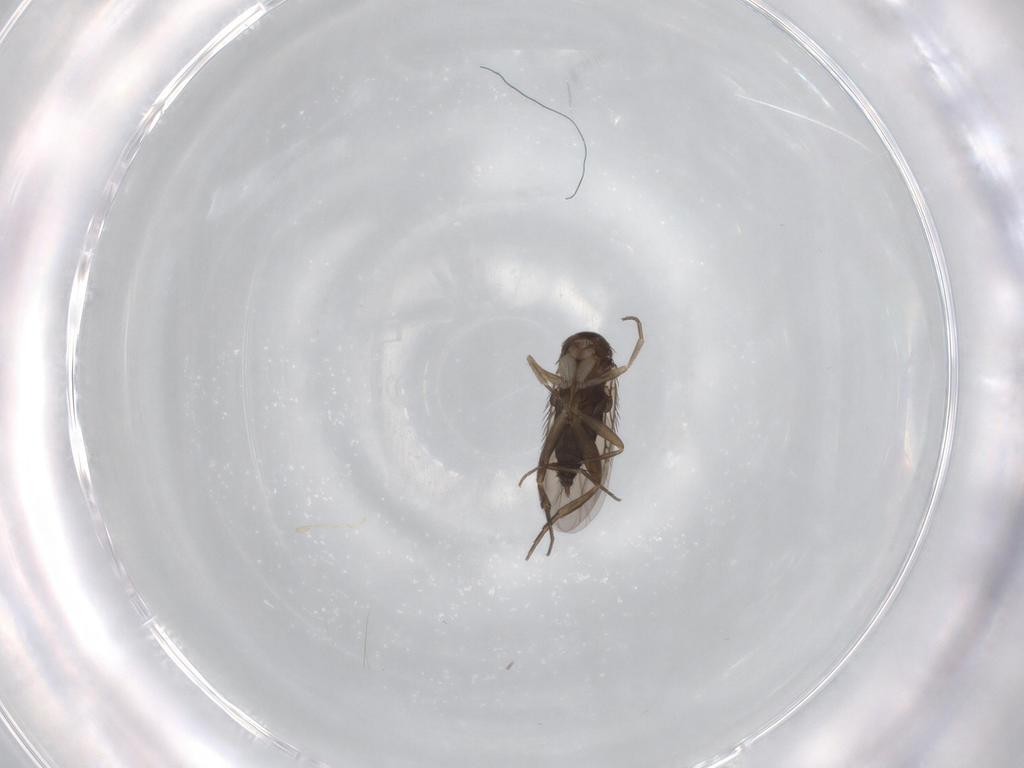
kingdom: Animalia
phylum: Arthropoda
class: Insecta
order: Diptera
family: Phoridae
